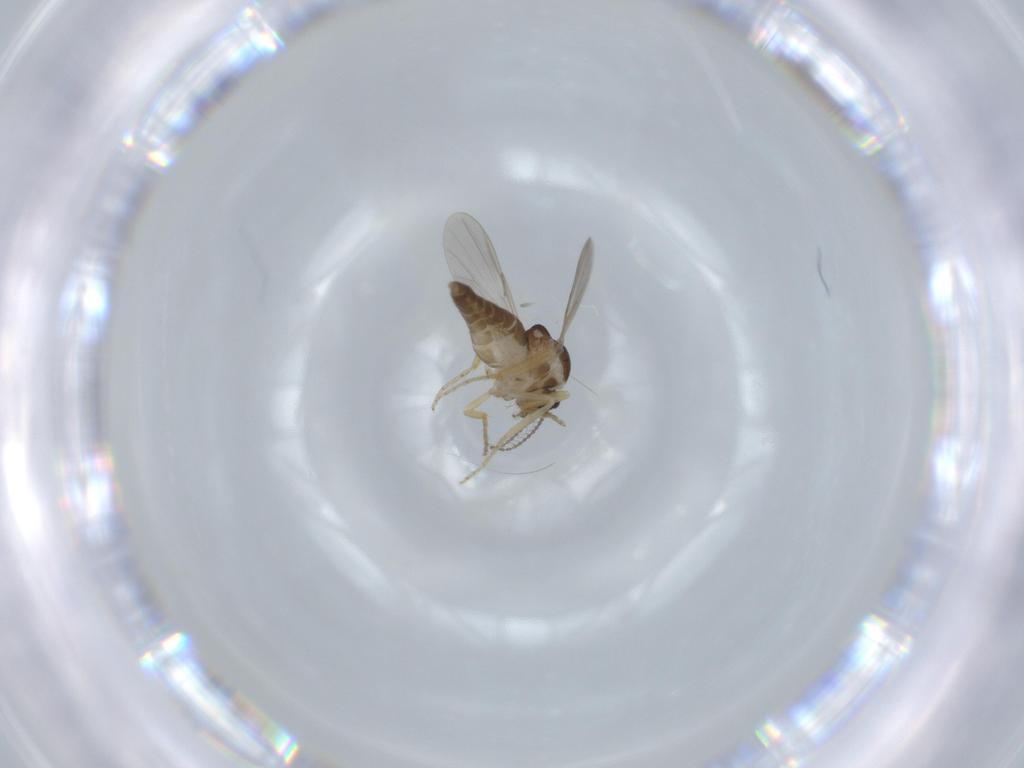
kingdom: Animalia
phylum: Arthropoda
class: Insecta
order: Diptera
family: Ceratopogonidae
